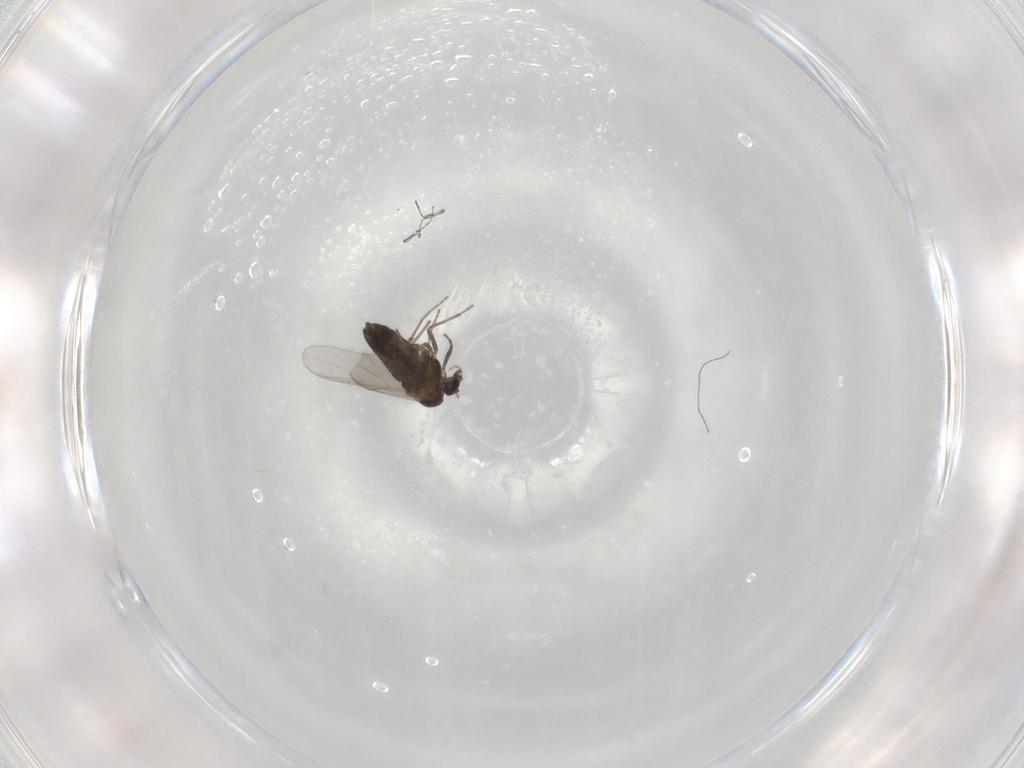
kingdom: Animalia
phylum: Arthropoda
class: Insecta
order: Diptera
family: Chironomidae
